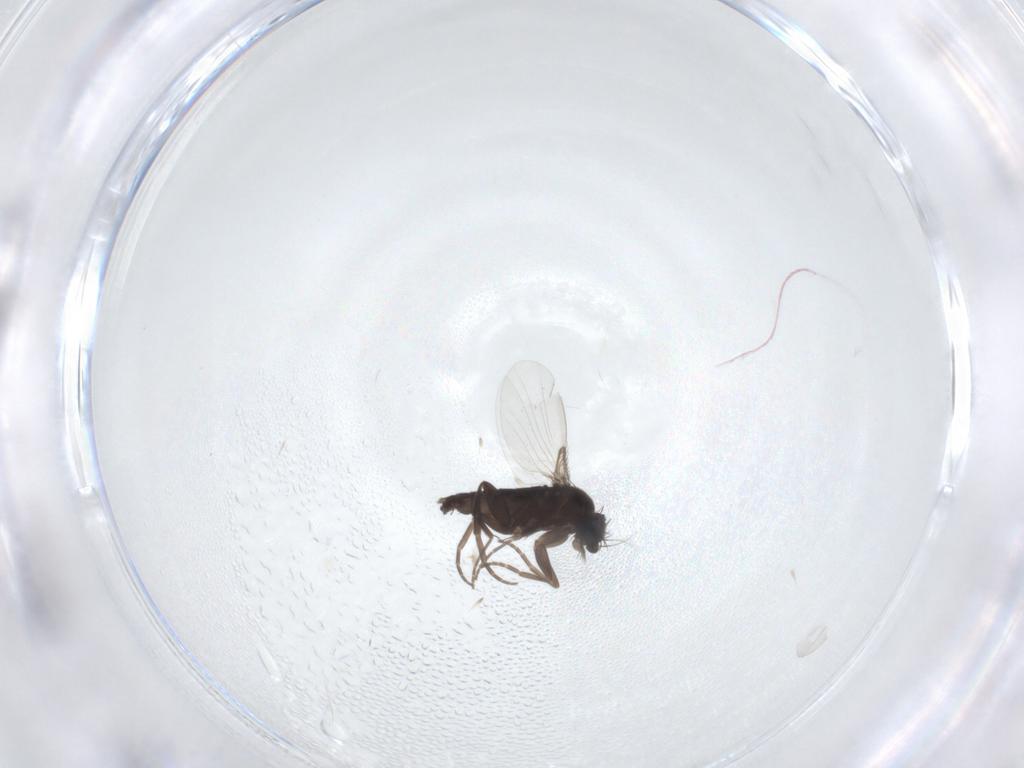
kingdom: Animalia
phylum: Arthropoda
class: Insecta
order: Diptera
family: Phoridae
